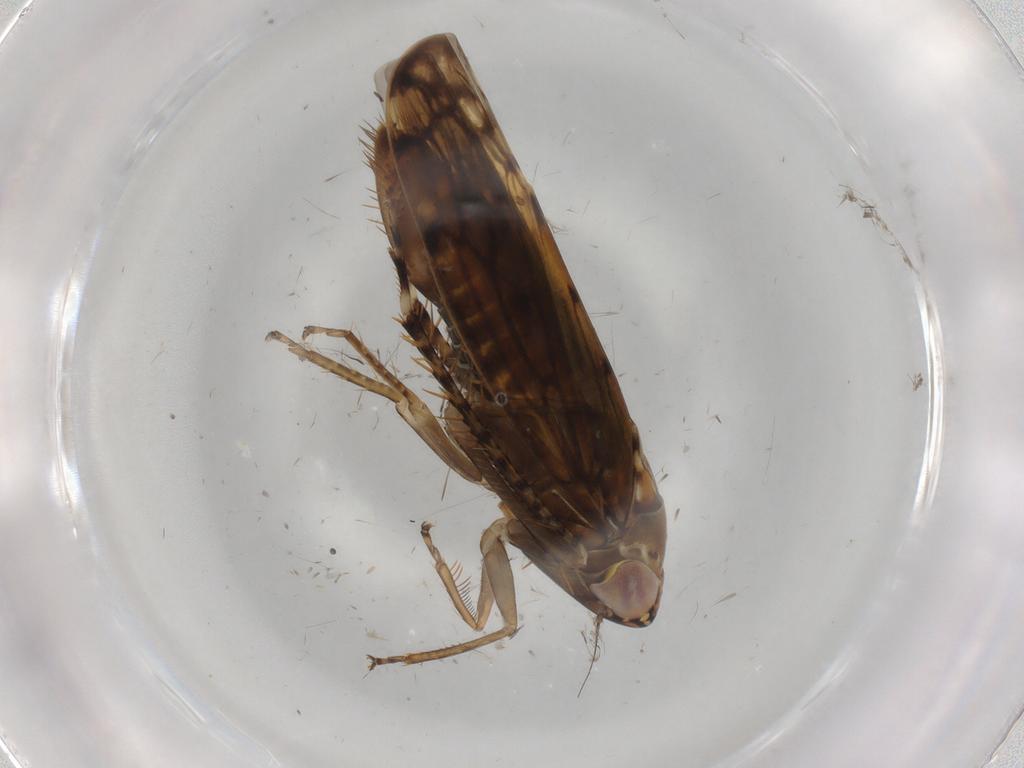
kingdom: Animalia
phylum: Arthropoda
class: Insecta
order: Hemiptera
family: Cicadellidae
